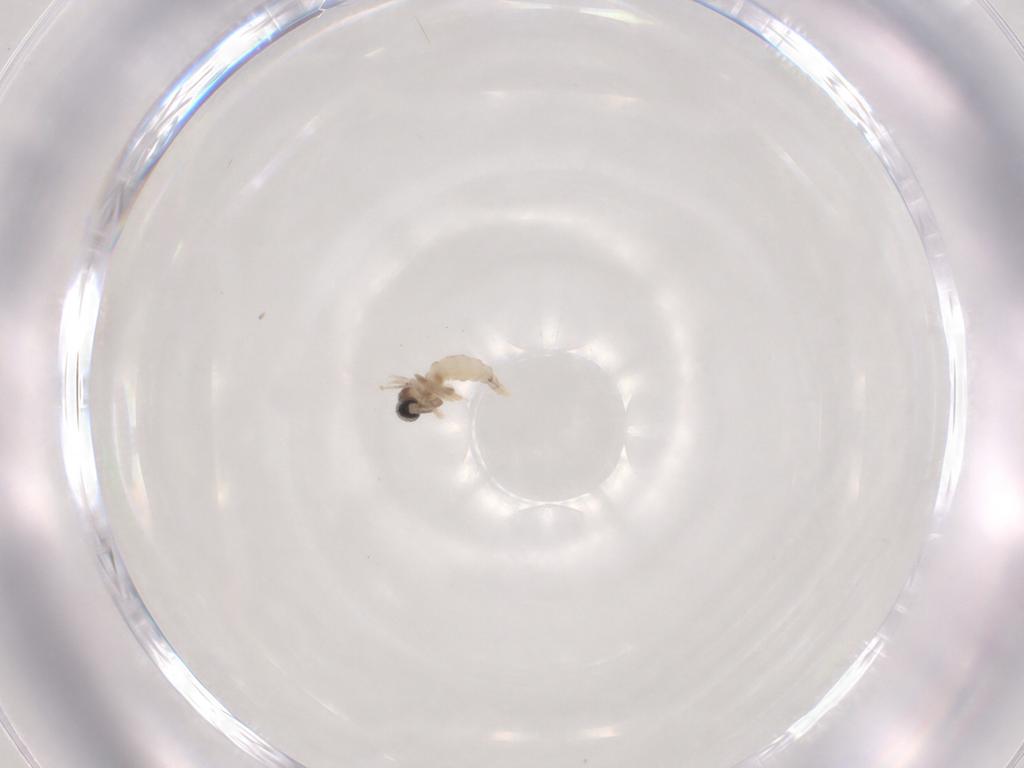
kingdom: Animalia
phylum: Arthropoda
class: Insecta
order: Diptera
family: Cecidomyiidae
